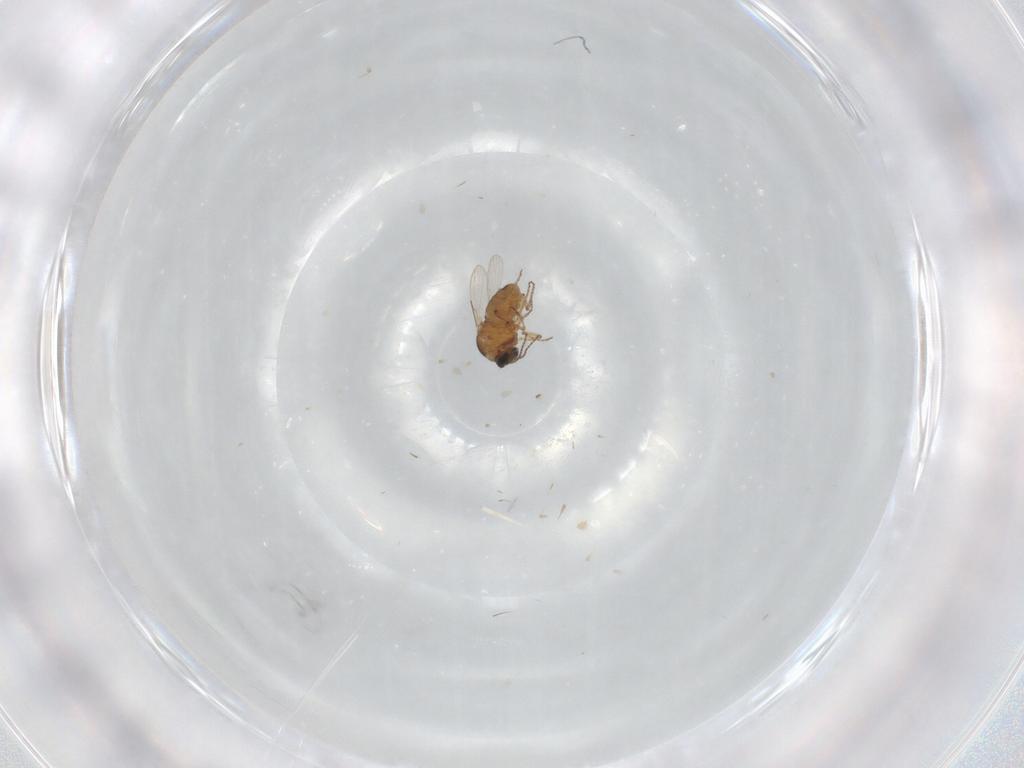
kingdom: Animalia
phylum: Arthropoda
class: Insecta
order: Diptera
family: Muscidae
